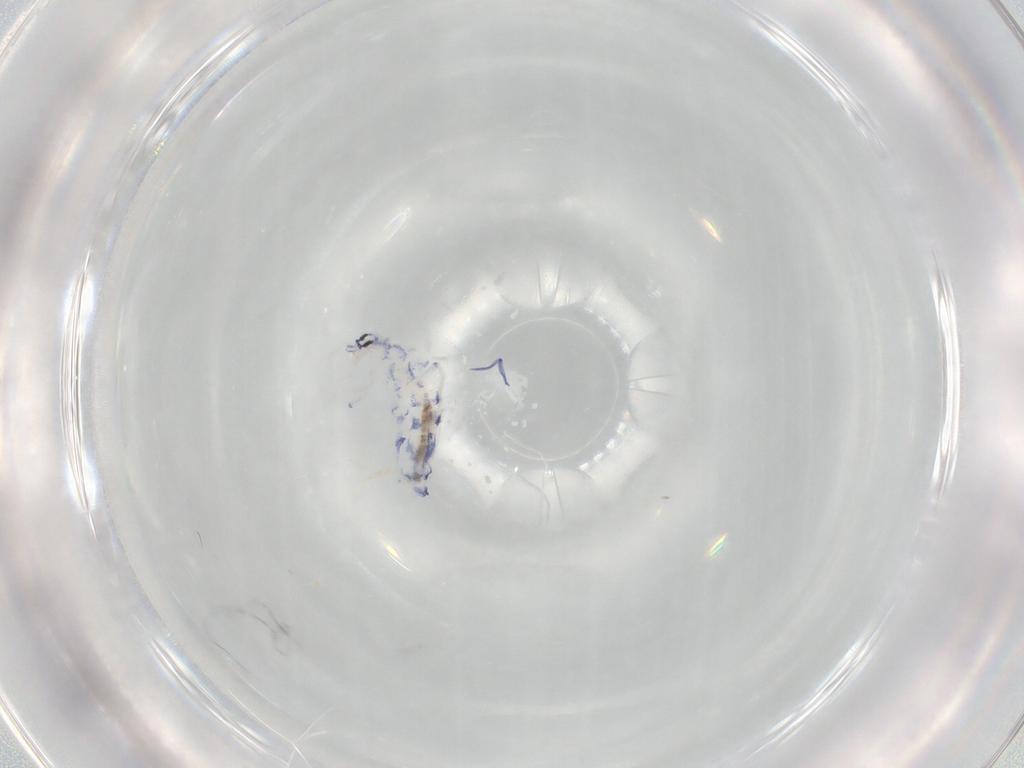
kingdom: Animalia
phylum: Arthropoda
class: Collembola
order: Entomobryomorpha
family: Entomobryidae
